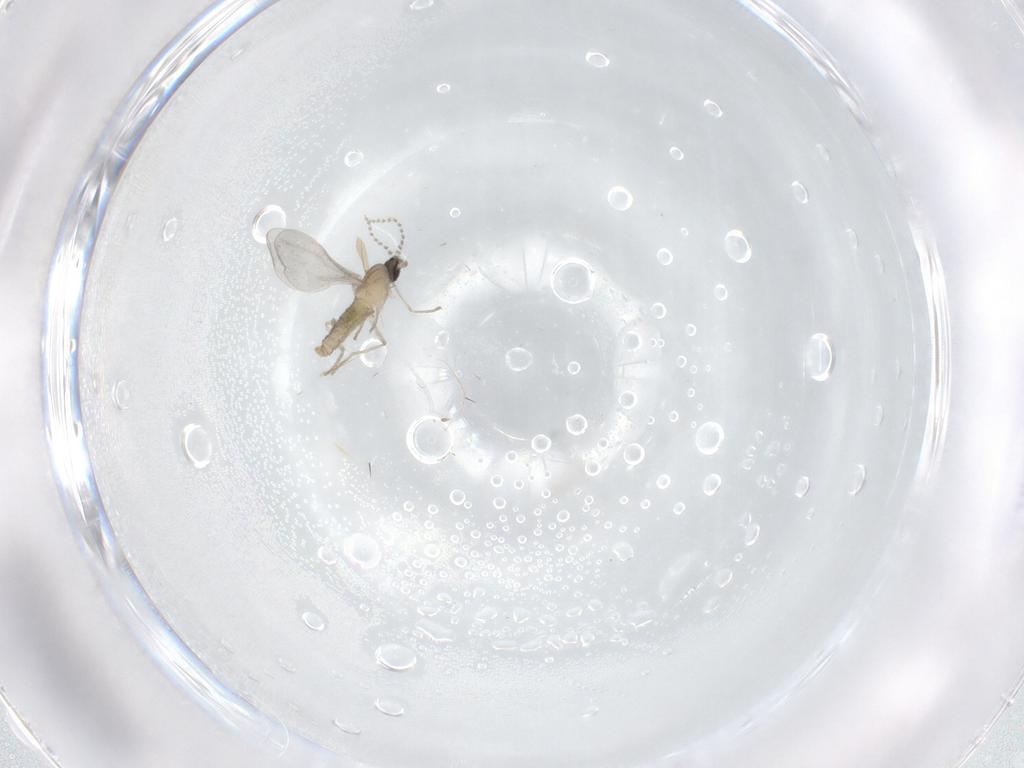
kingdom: Animalia
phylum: Arthropoda
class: Insecta
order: Diptera
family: Cecidomyiidae
